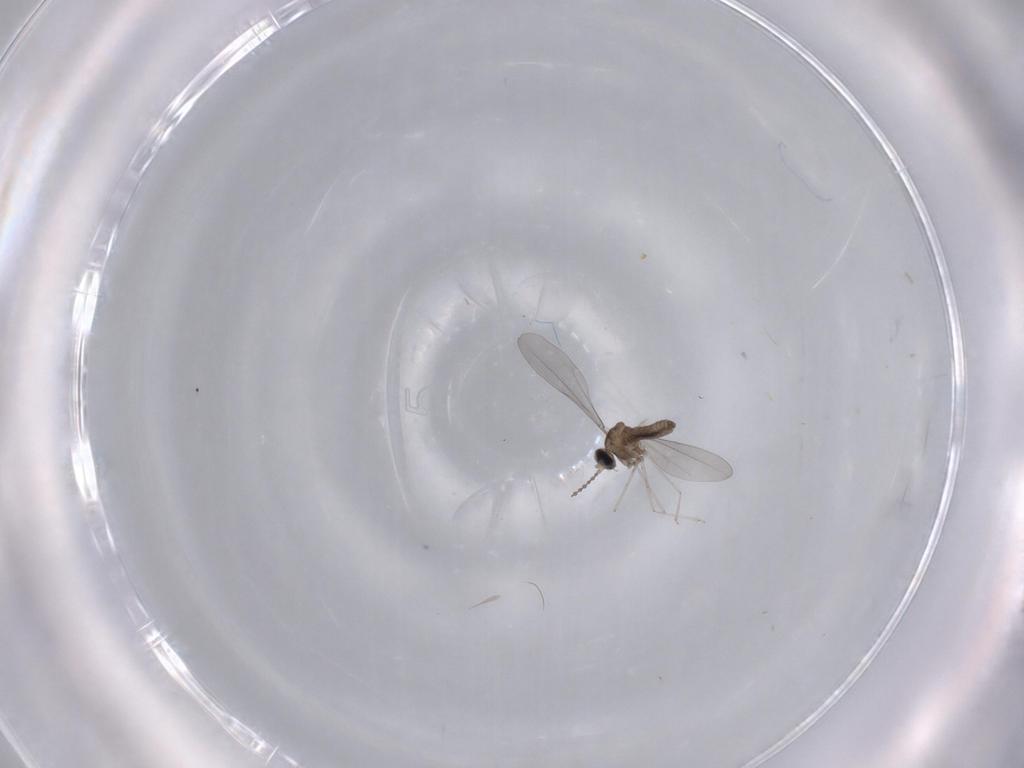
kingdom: Animalia
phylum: Arthropoda
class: Insecta
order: Diptera
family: Cecidomyiidae
